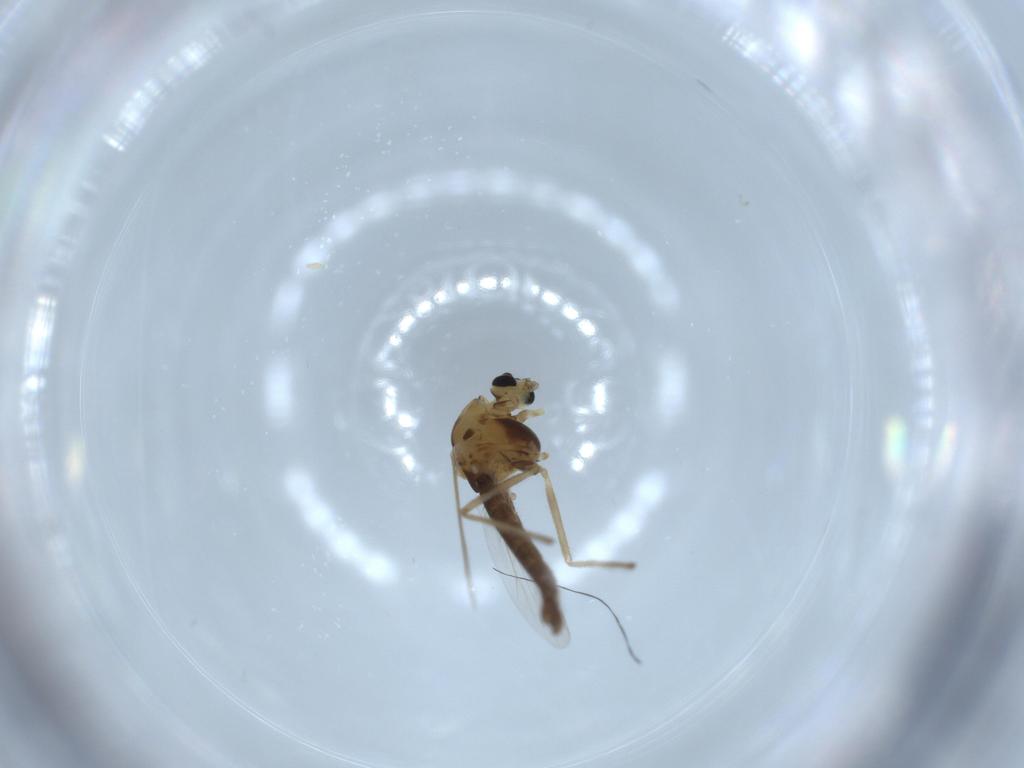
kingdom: Animalia
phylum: Arthropoda
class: Insecta
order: Diptera
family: Chironomidae
